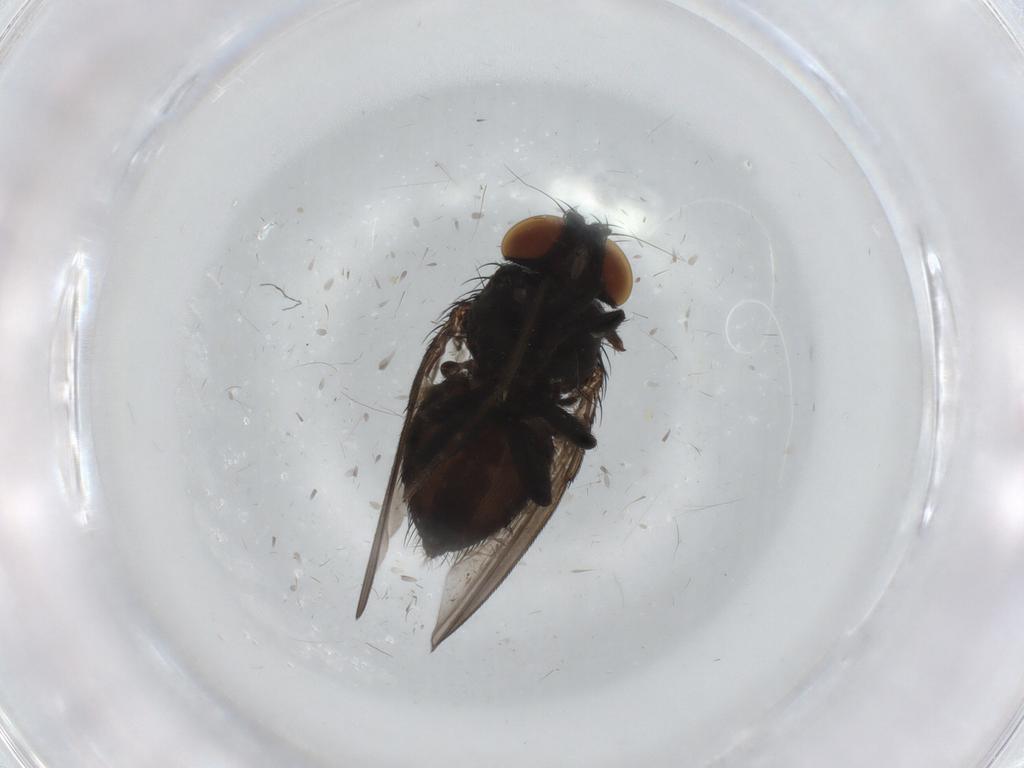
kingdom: Animalia
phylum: Arthropoda
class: Insecta
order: Diptera
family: Milichiidae
